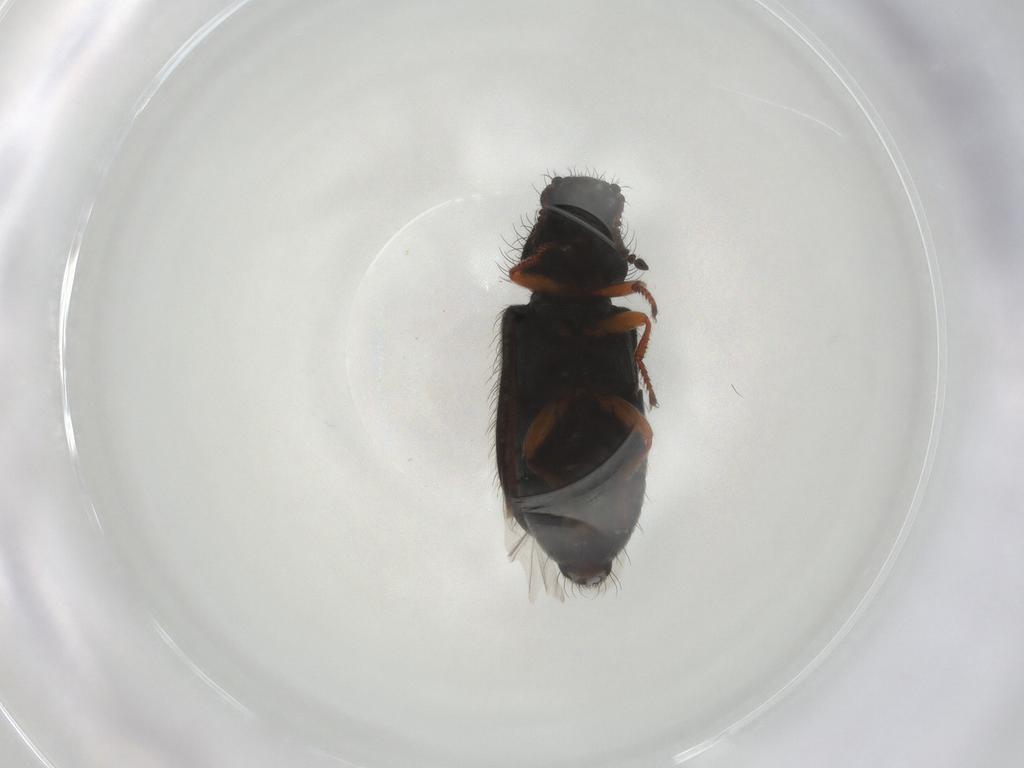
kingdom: Animalia
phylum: Arthropoda
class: Insecta
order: Coleoptera
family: Melyridae
